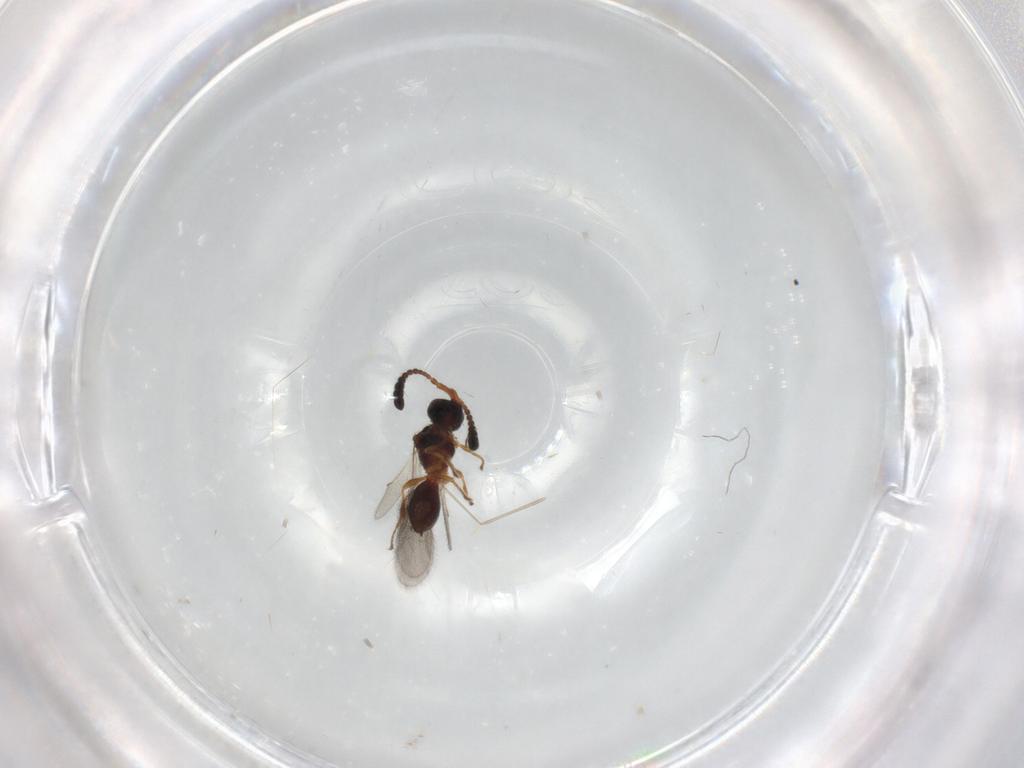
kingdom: Animalia
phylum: Arthropoda
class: Insecta
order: Hymenoptera
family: Diapriidae
